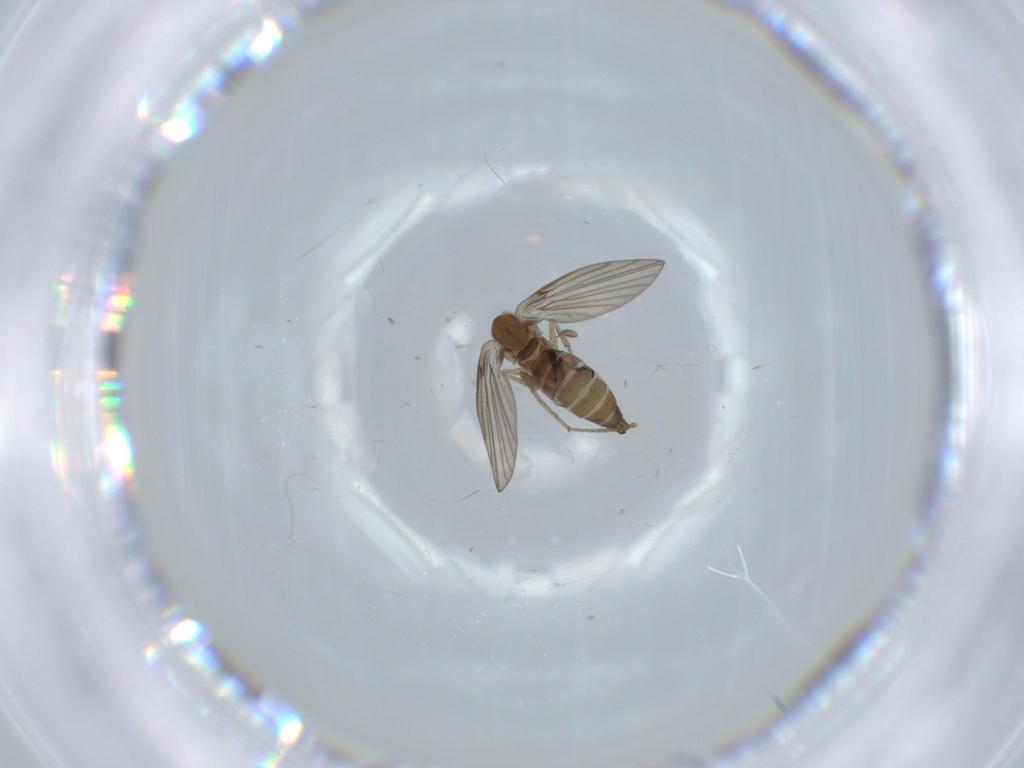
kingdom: Animalia
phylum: Arthropoda
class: Insecta
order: Diptera
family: Psychodidae
